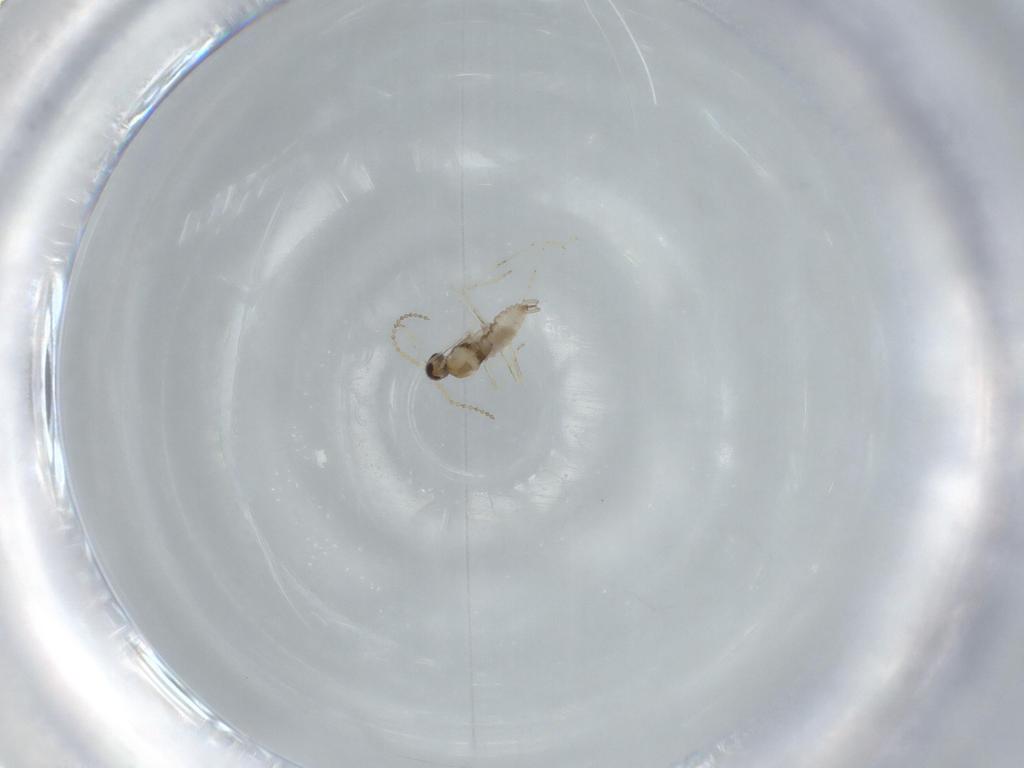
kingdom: Animalia
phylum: Arthropoda
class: Insecta
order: Diptera
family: Cecidomyiidae
